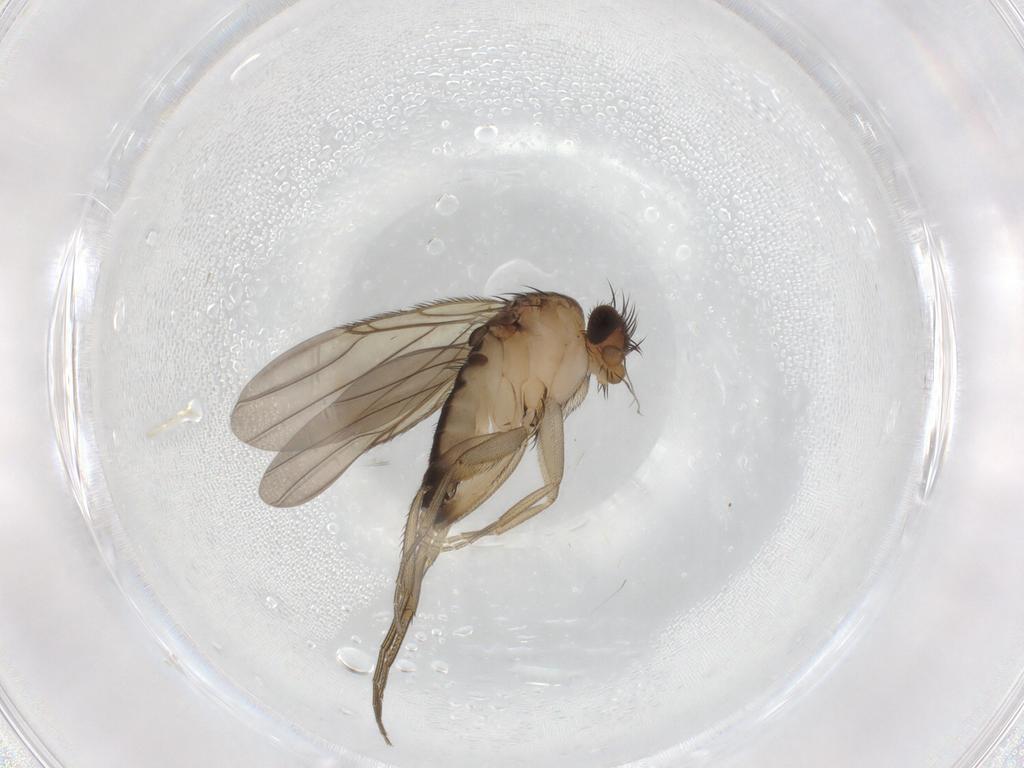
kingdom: Animalia
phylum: Arthropoda
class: Insecta
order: Diptera
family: Phoridae
